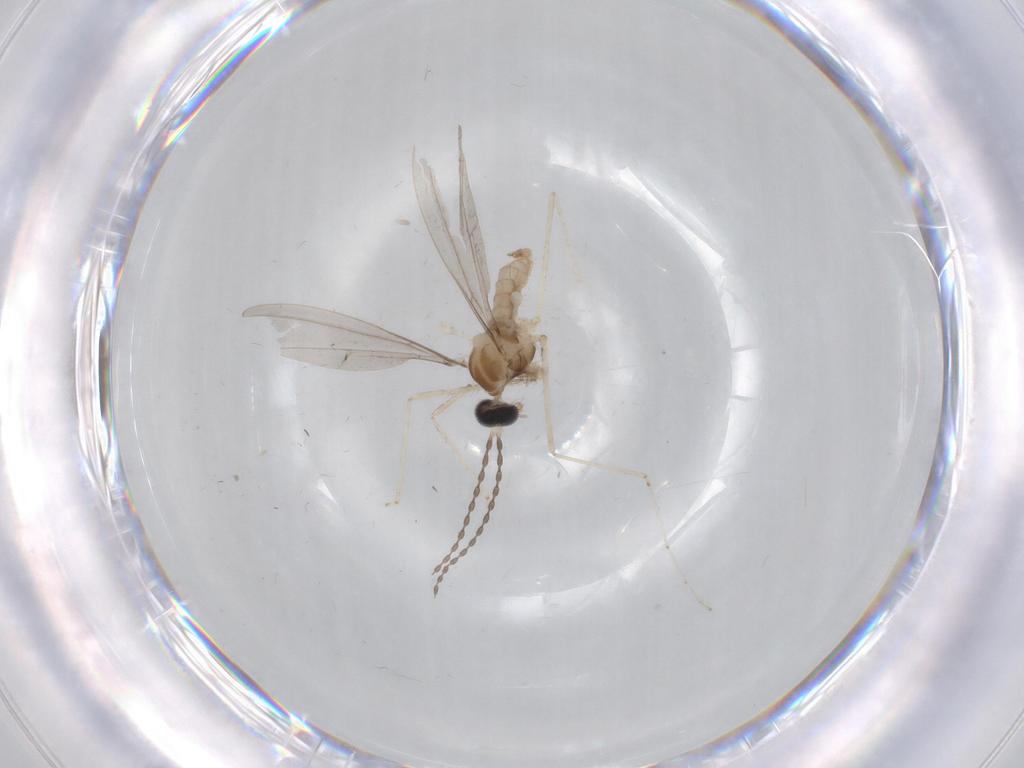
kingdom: Animalia
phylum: Arthropoda
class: Insecta
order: Diptera
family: Cecidomyiidae
